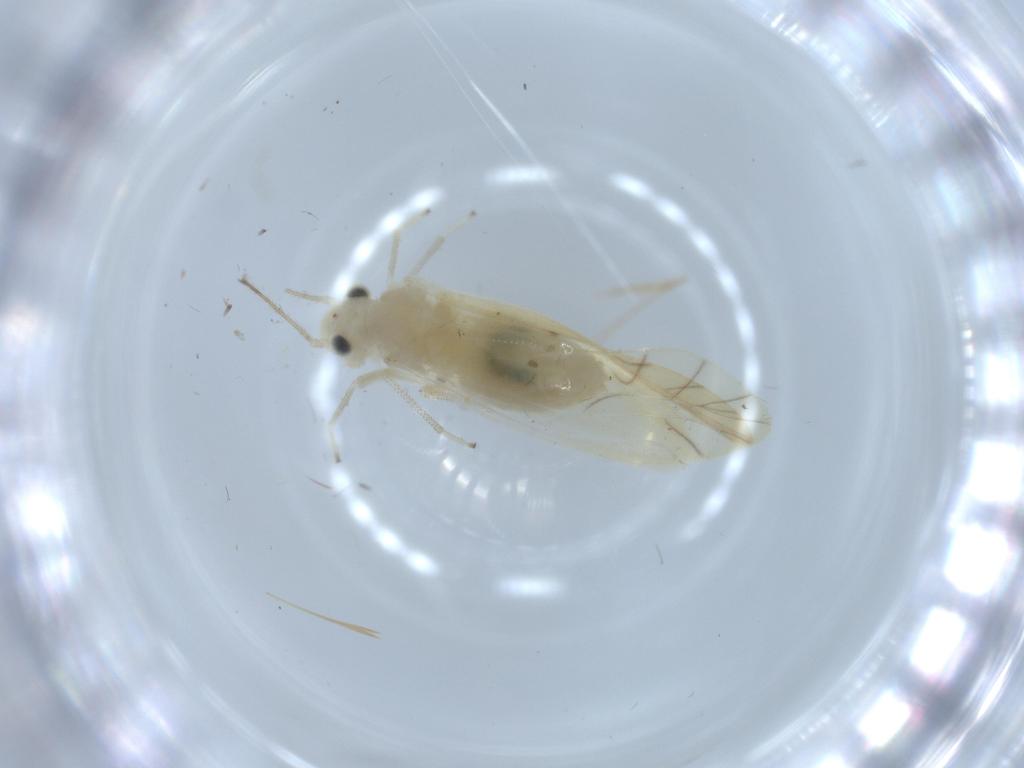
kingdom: Animalia
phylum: Arthropoda
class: Insecta
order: Psocodea
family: Caeciliusidae
